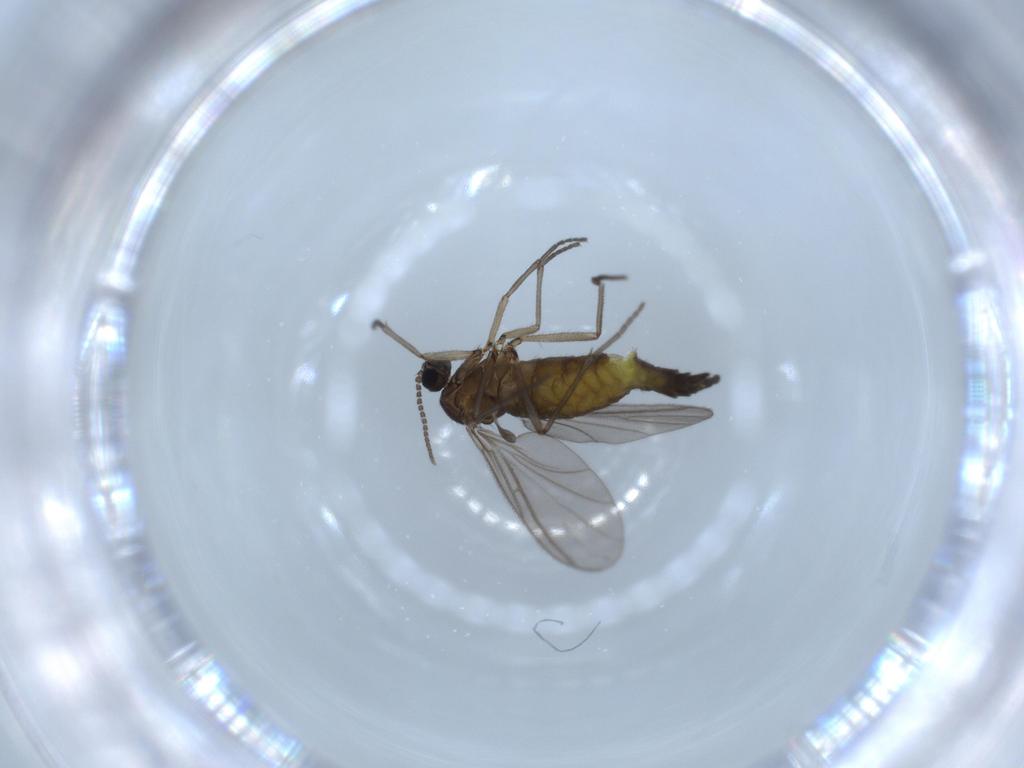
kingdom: Animalia
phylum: Arthropoda
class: Insecta
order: Diptera
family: Sciaridae
